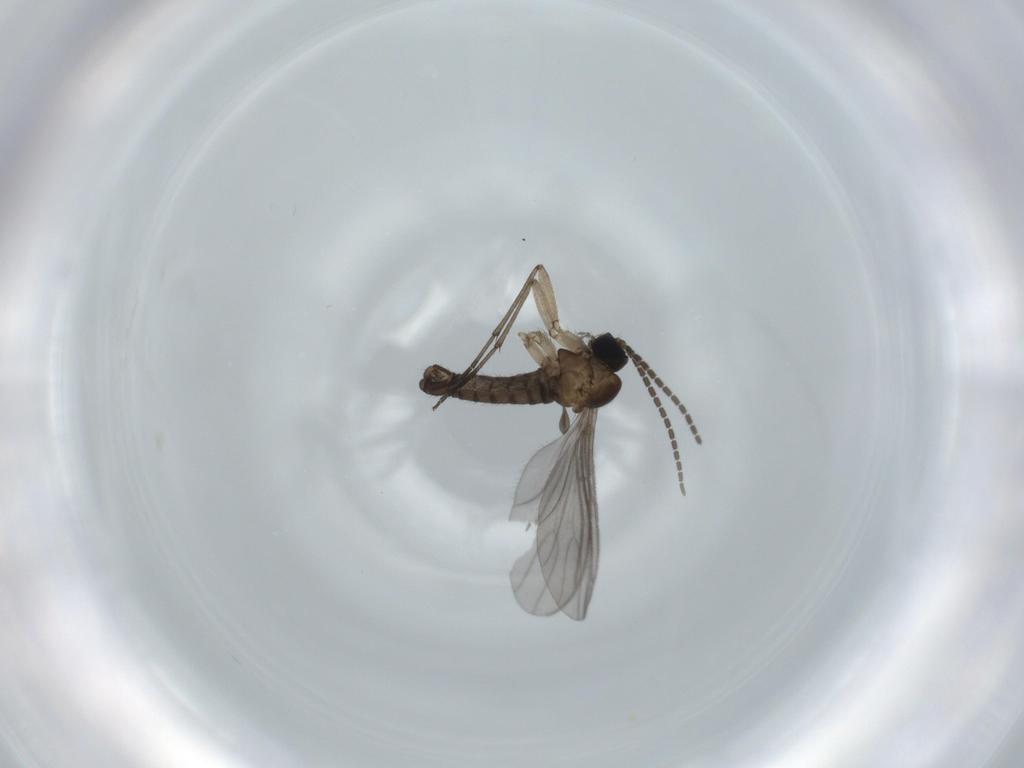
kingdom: Animalia
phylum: Arthropoda
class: Insecta
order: Diptera
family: Sciaridae
